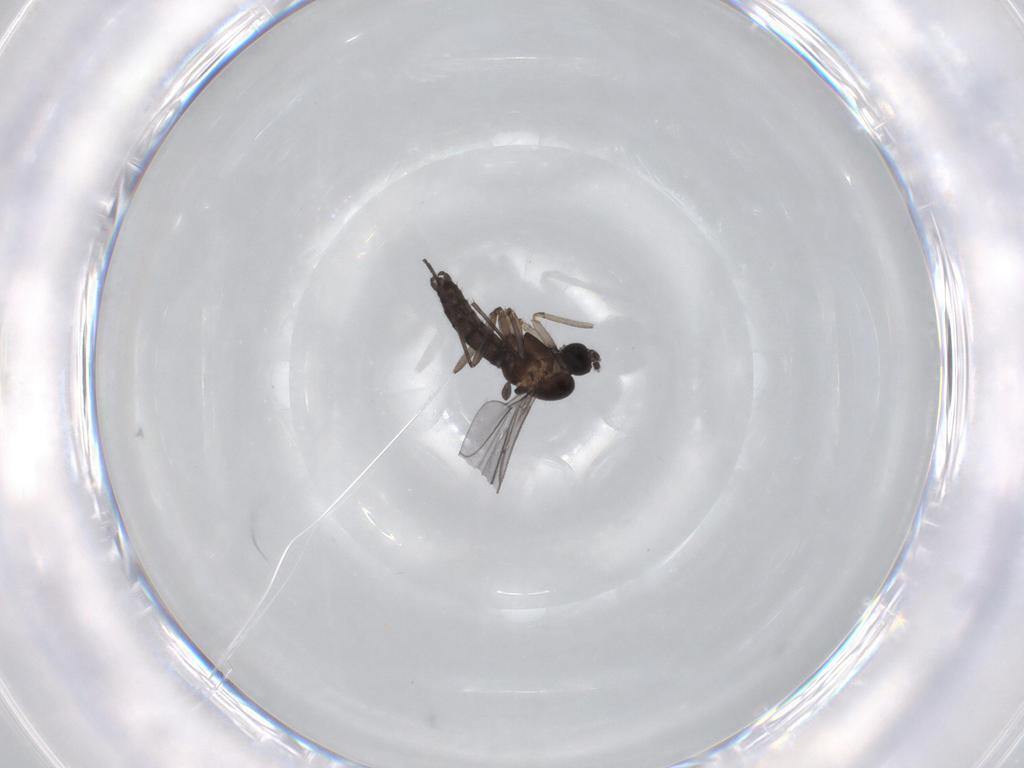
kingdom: Animalia
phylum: Arthropoda
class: Insecta
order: Diptera
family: Sciaridae
